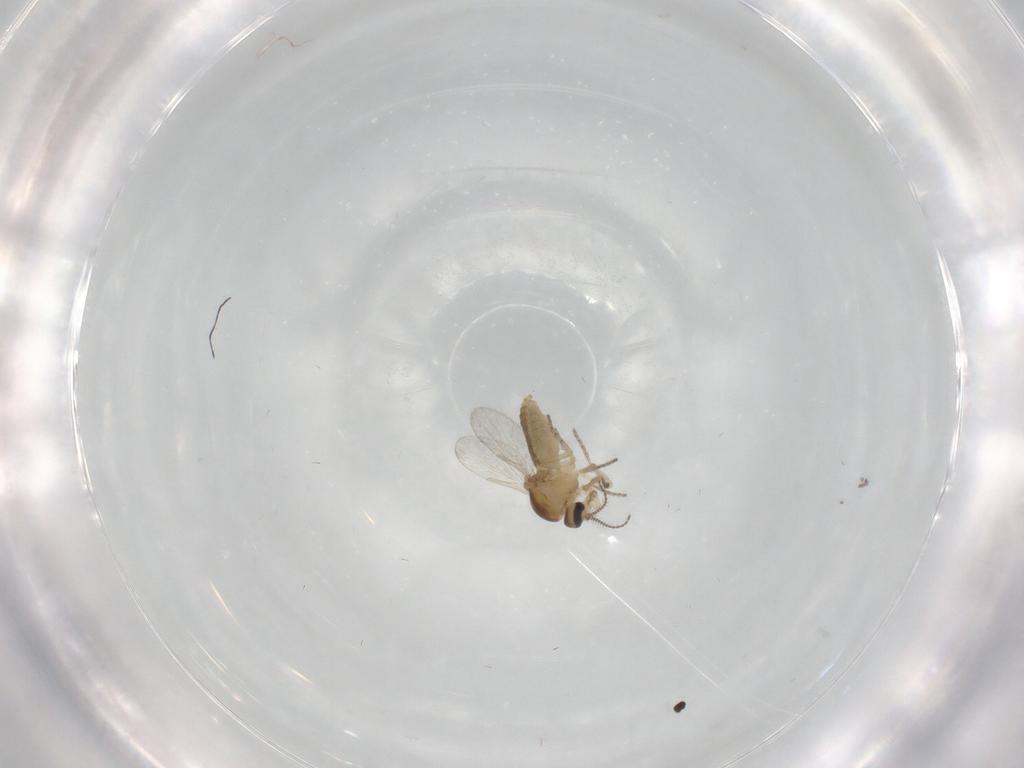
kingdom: Animalia
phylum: Arthropoda
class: Insecta
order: Diptera
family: Ceratopogonidae
